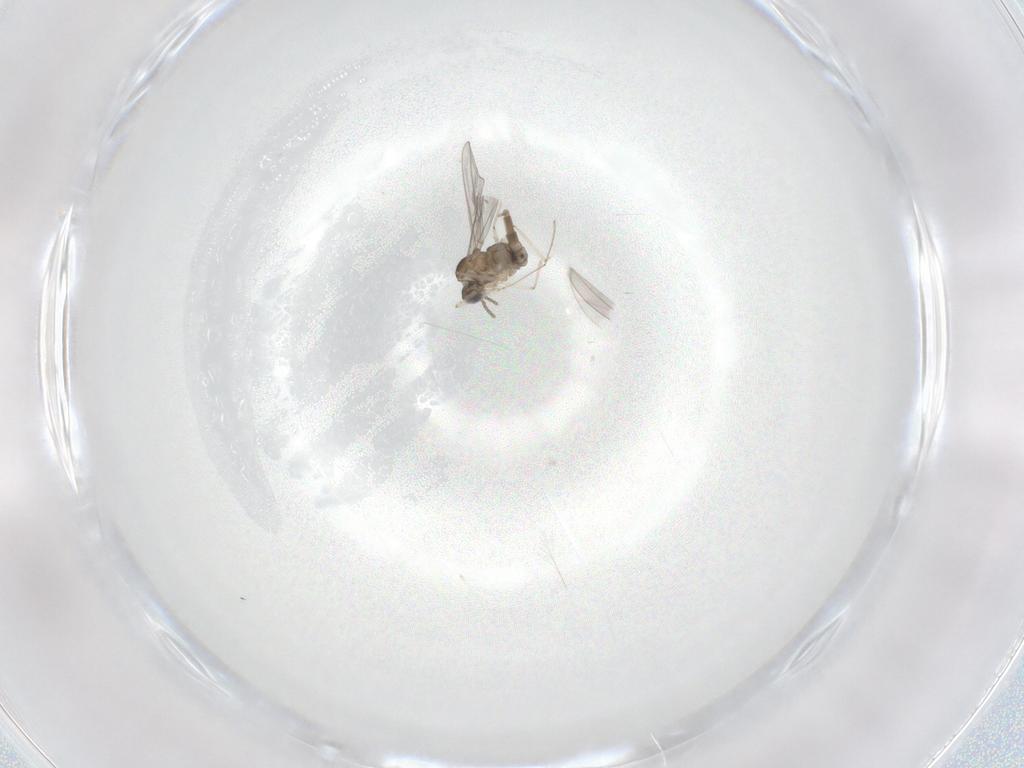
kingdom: Animalia
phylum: Arthropoda
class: Insecta
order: Diptera
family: Cecidomyiidae
